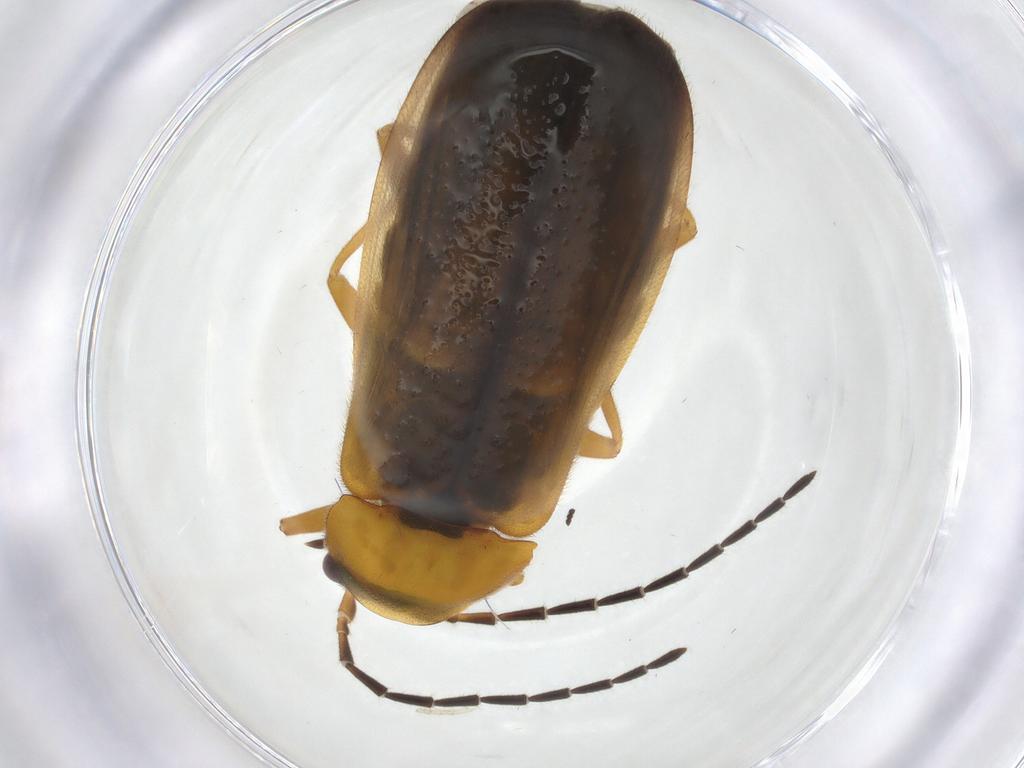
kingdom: Animalia
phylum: Arthropoda
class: Insecta
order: Coleoptera
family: Cantharidae
